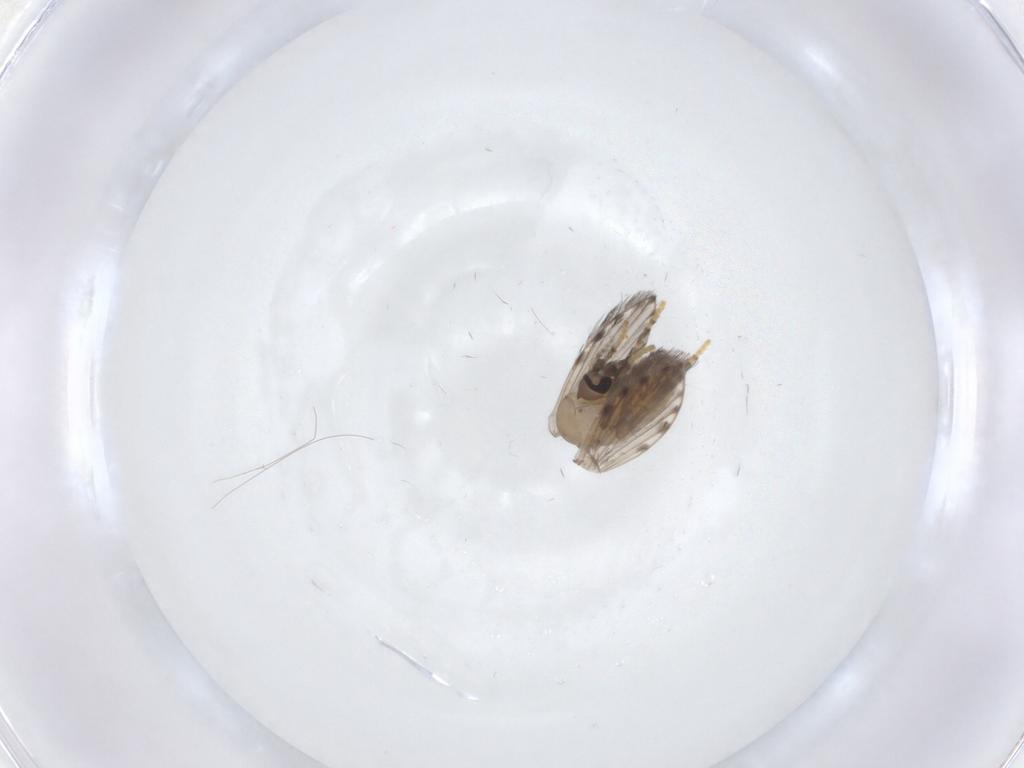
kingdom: Animalia
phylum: Arthropoda
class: Insecta
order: Diptera
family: Psychodidae
